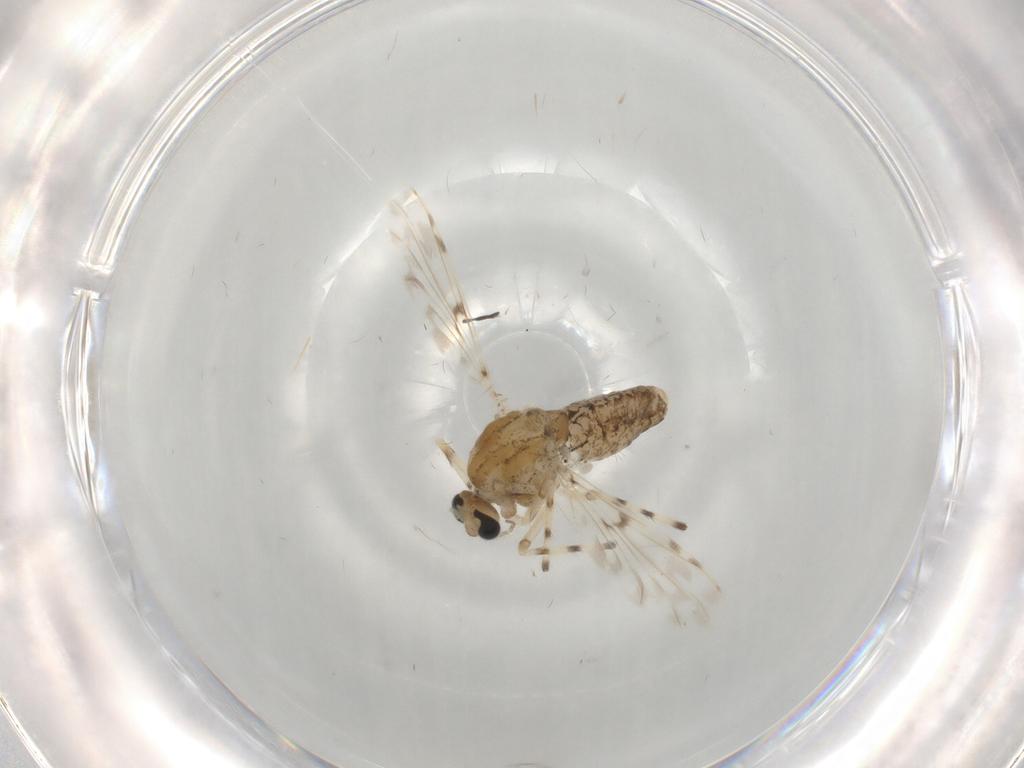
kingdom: Animalia
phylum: Arthropoda
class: Insecta
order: Diptera
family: Chironomidae
